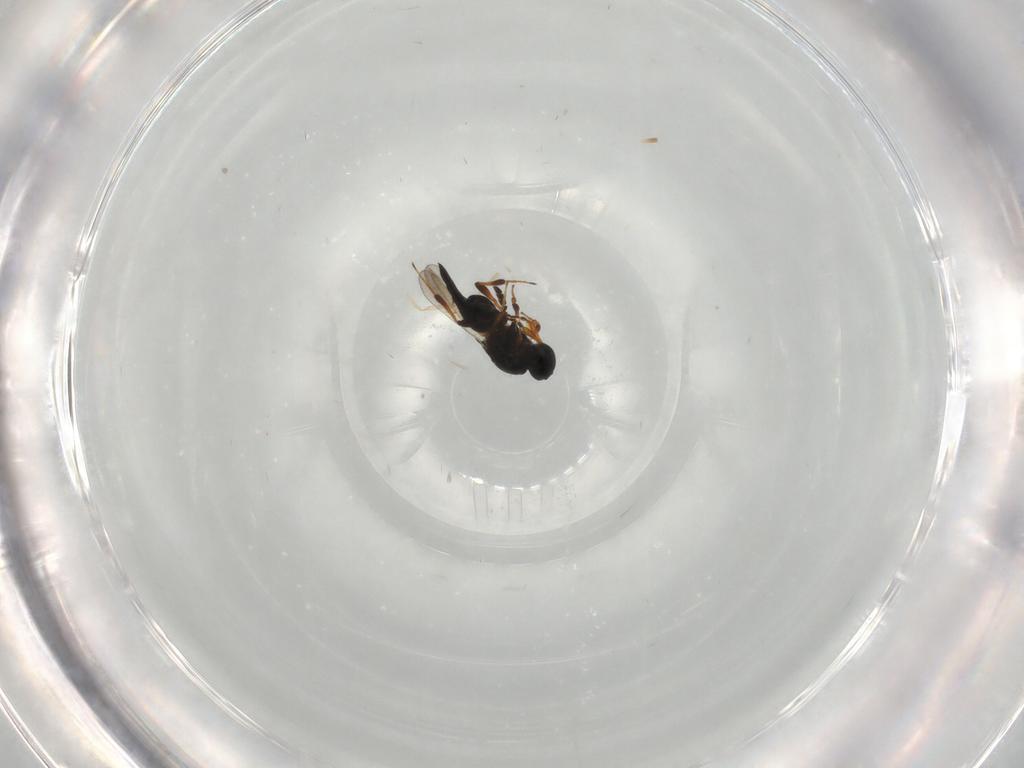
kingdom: Animalia
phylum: Arthropoda
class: Insecta
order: Hymenoptera
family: Platygastridae
